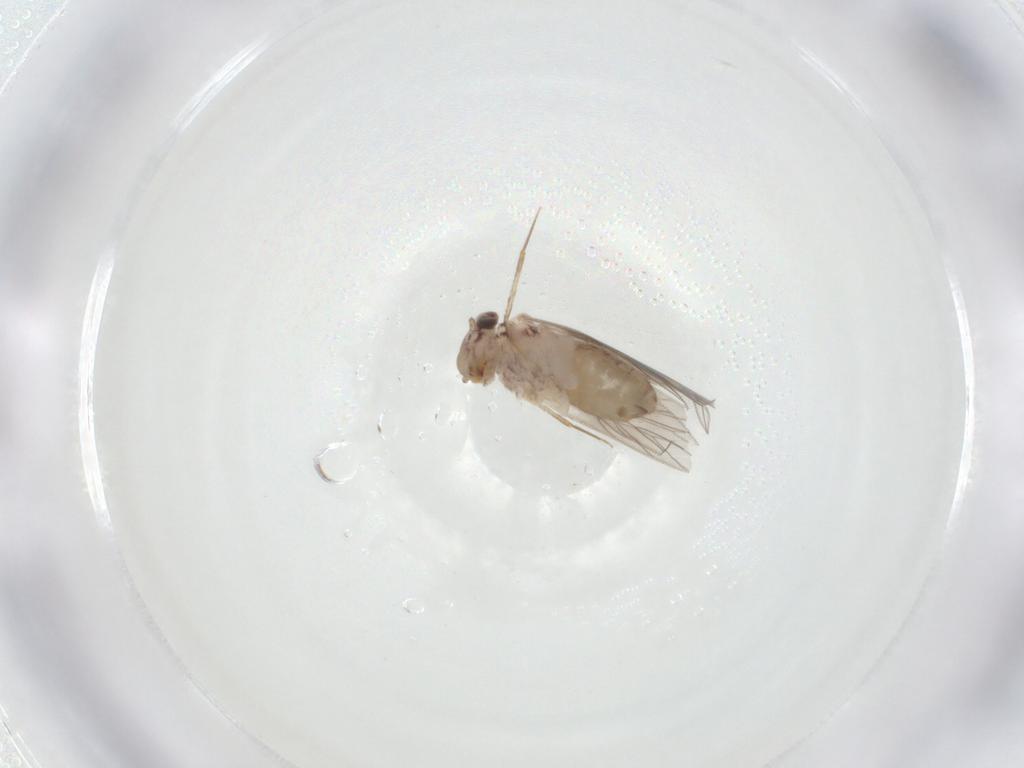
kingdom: Animalia
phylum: Arthropoda
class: Insecta
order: Psocodea
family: Lepidopsocidae
